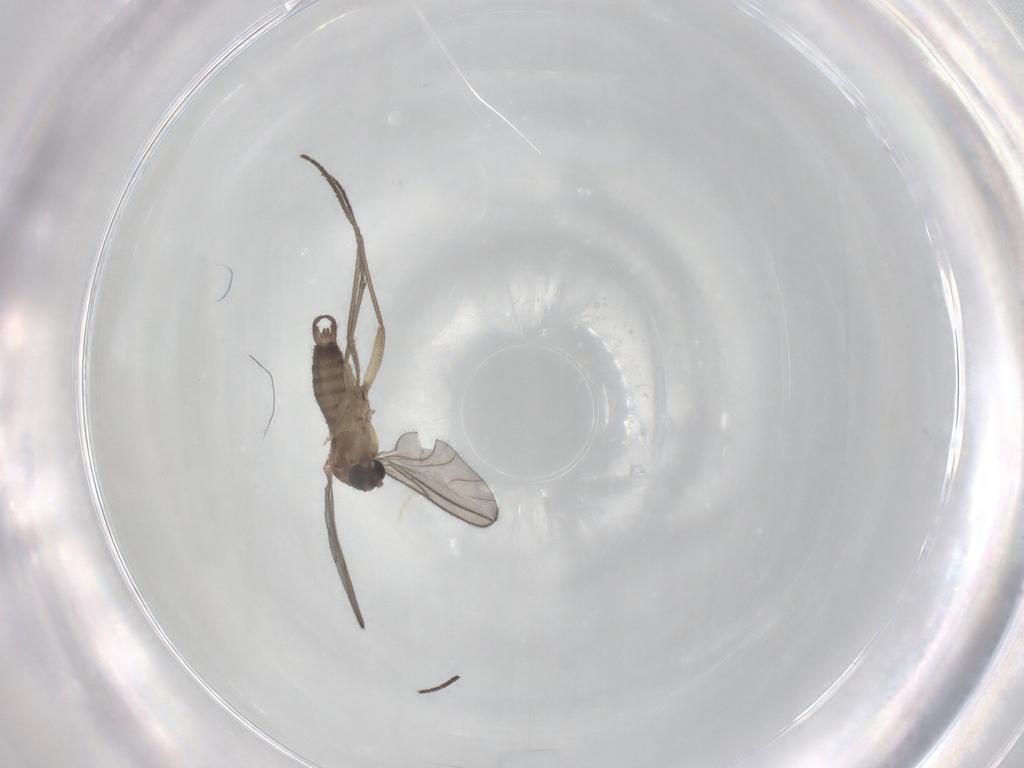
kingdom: Animalia
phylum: Arthropoda
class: Insecta
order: Diptera
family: Sciaridae
